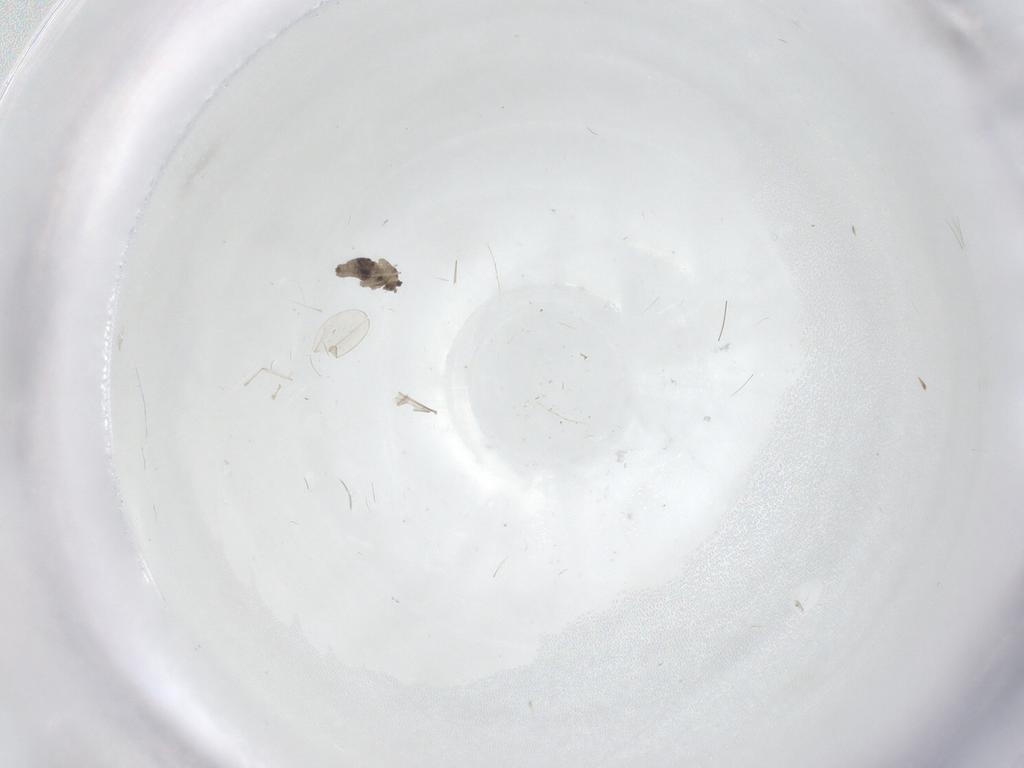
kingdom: Animalia
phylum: Arthropoda
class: Insecta
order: Diptera
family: Cecidomyiidae
